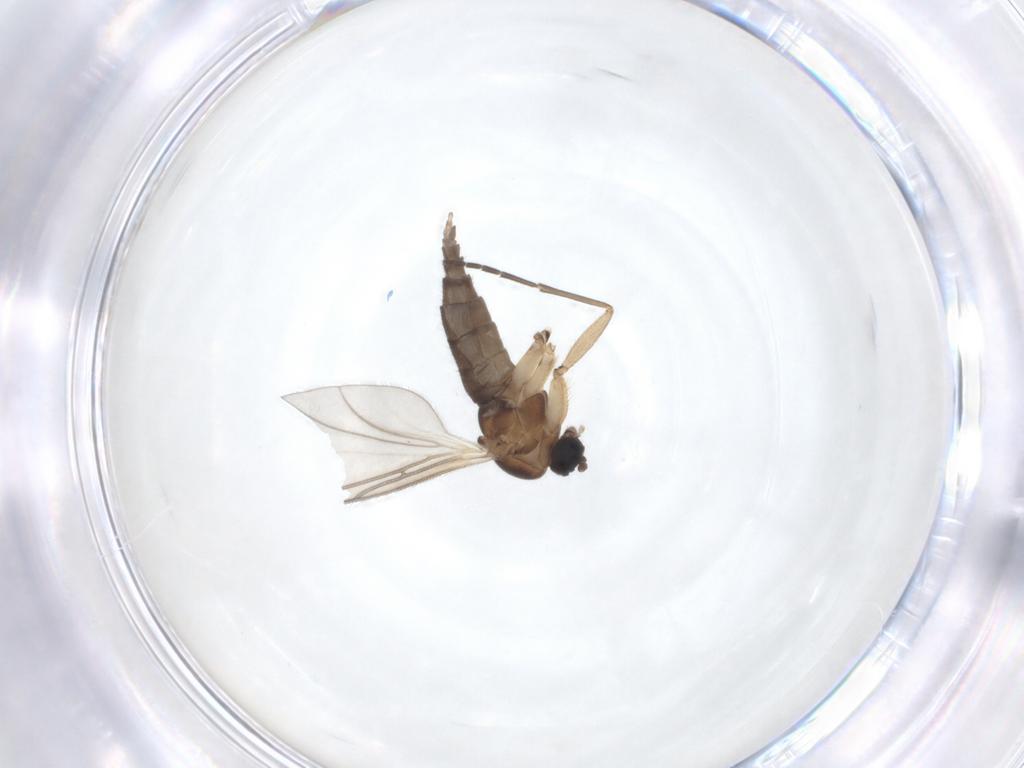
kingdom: Animalia
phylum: Arthropoda
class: Insecta
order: Diptera
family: Sciaridae
